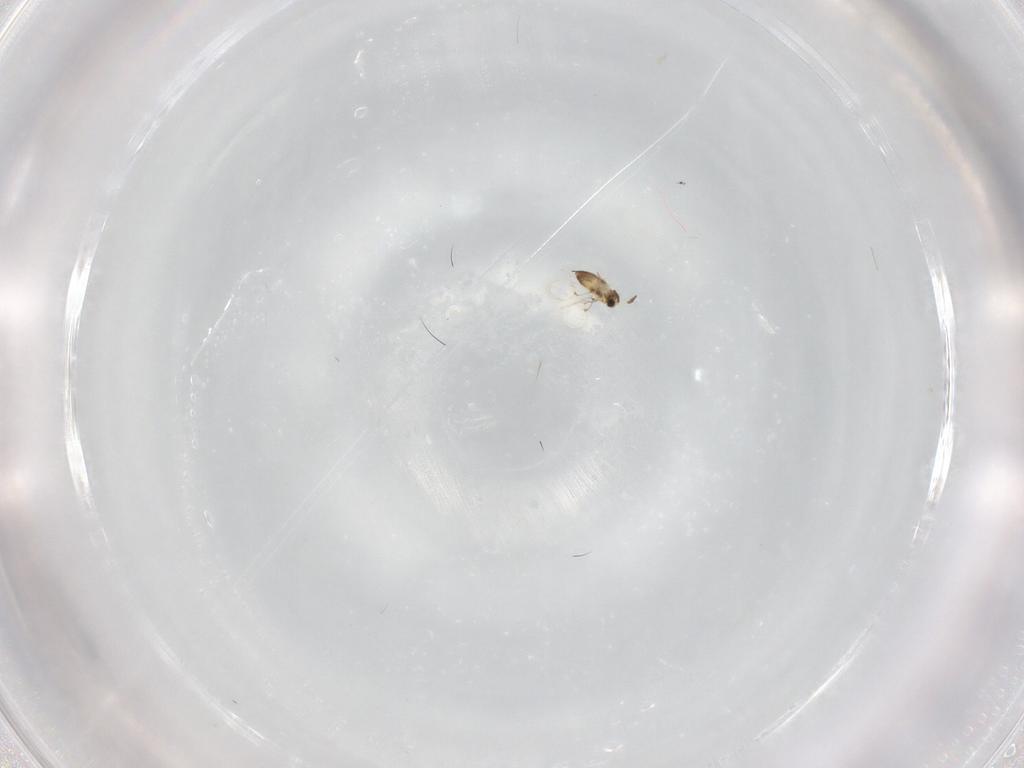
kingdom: Animalia
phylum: Arthropoda
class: Insecta
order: Hymenoptera
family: Trichogrammatidae
